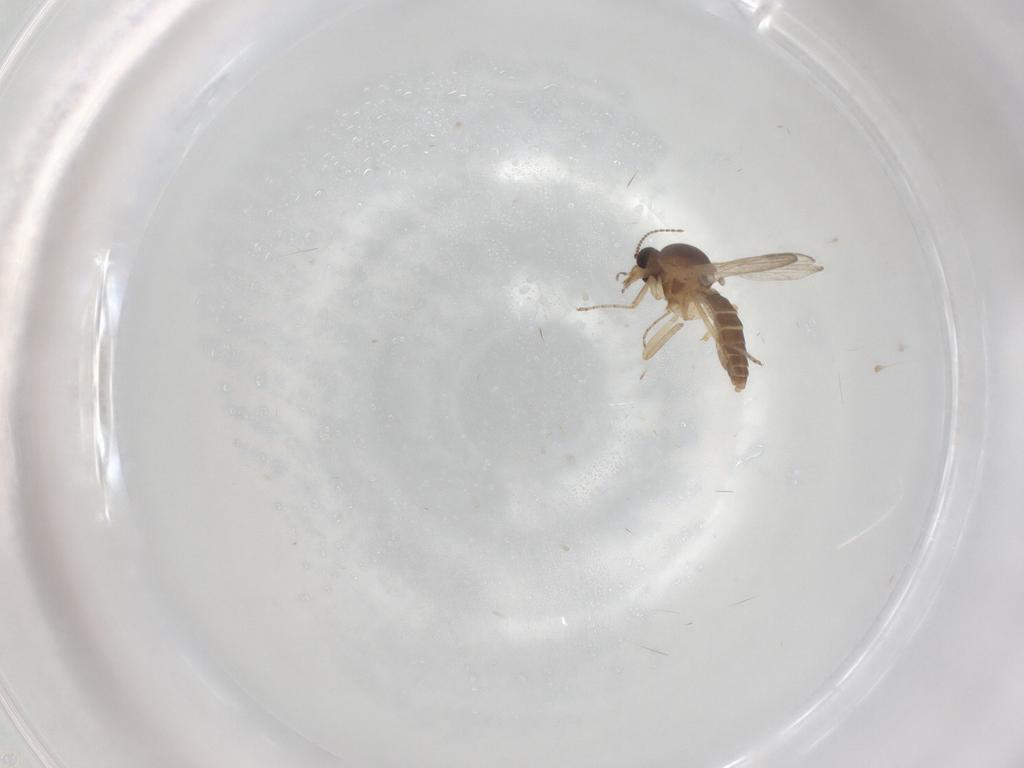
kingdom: Animalia
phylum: Arthropoda
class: Insecta
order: Diptera
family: Ceratopogonidae
